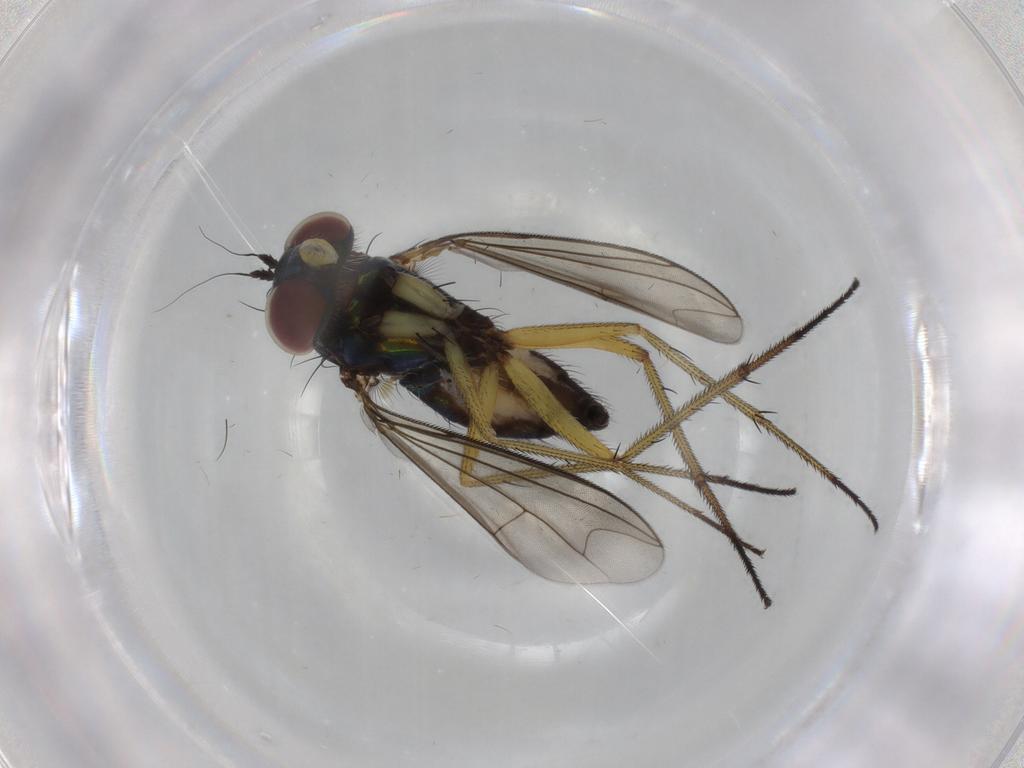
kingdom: Animalia
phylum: Arthropoda
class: Insecta
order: Diptera
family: Dolichopodidae
